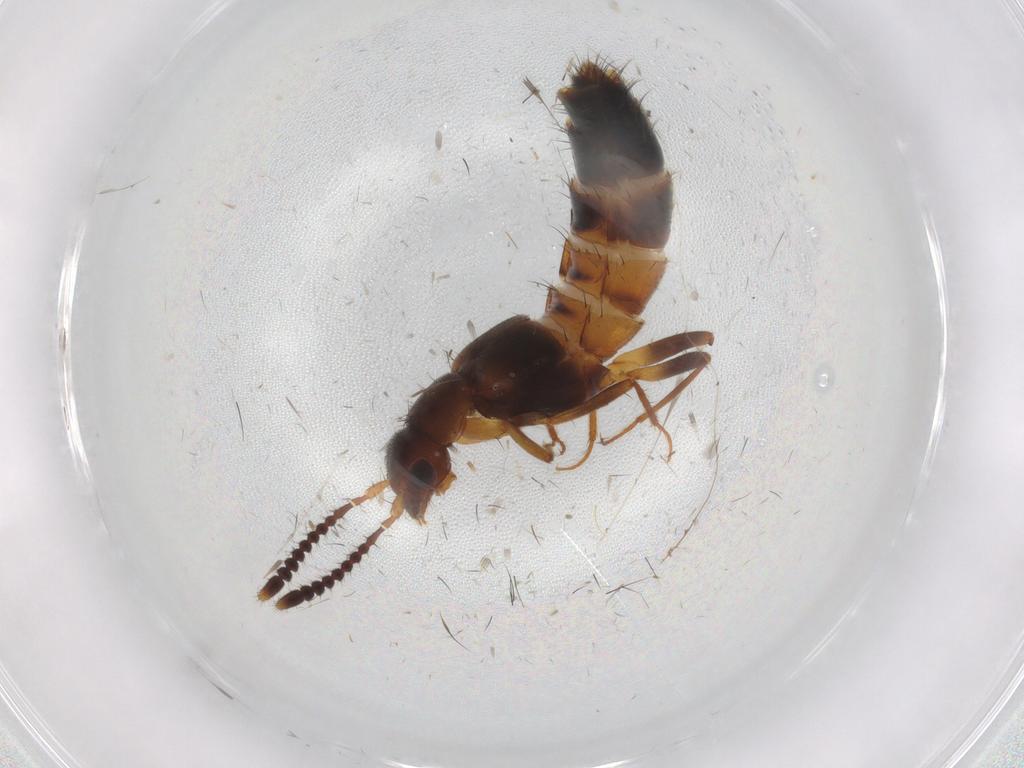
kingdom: Animalia
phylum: Arthropoda
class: Insecta
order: Coleoptera
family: Staphylinidae
